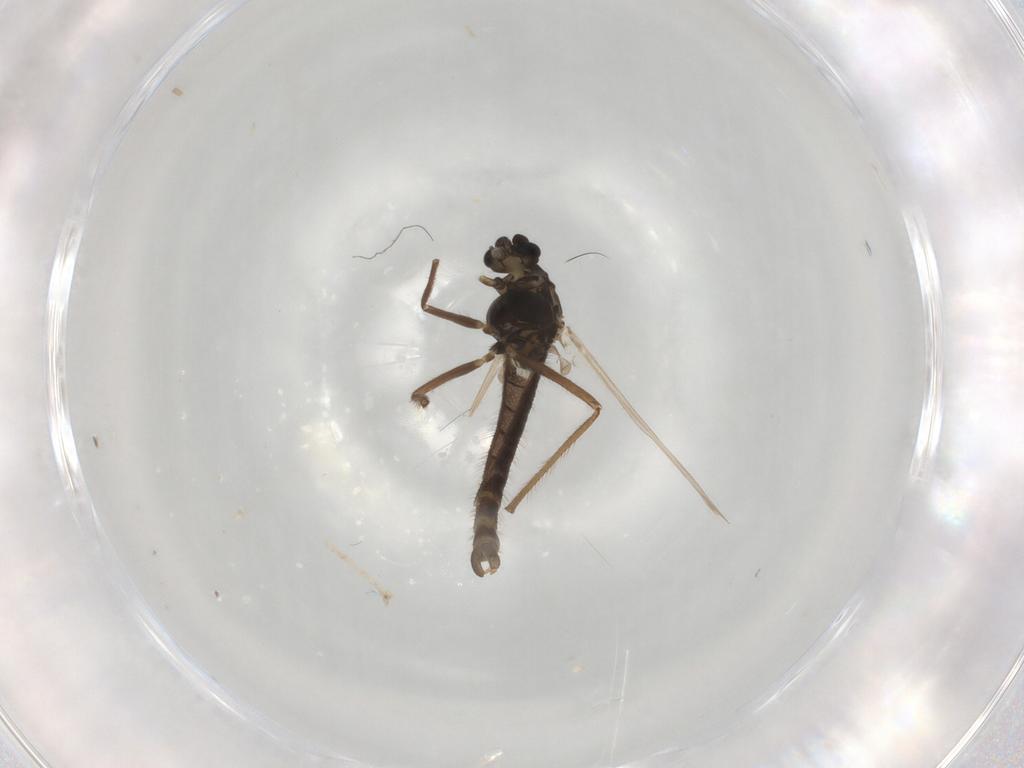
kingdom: Animalia
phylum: Arthropoda
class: Insecta
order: Diptera
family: Chironomidae
